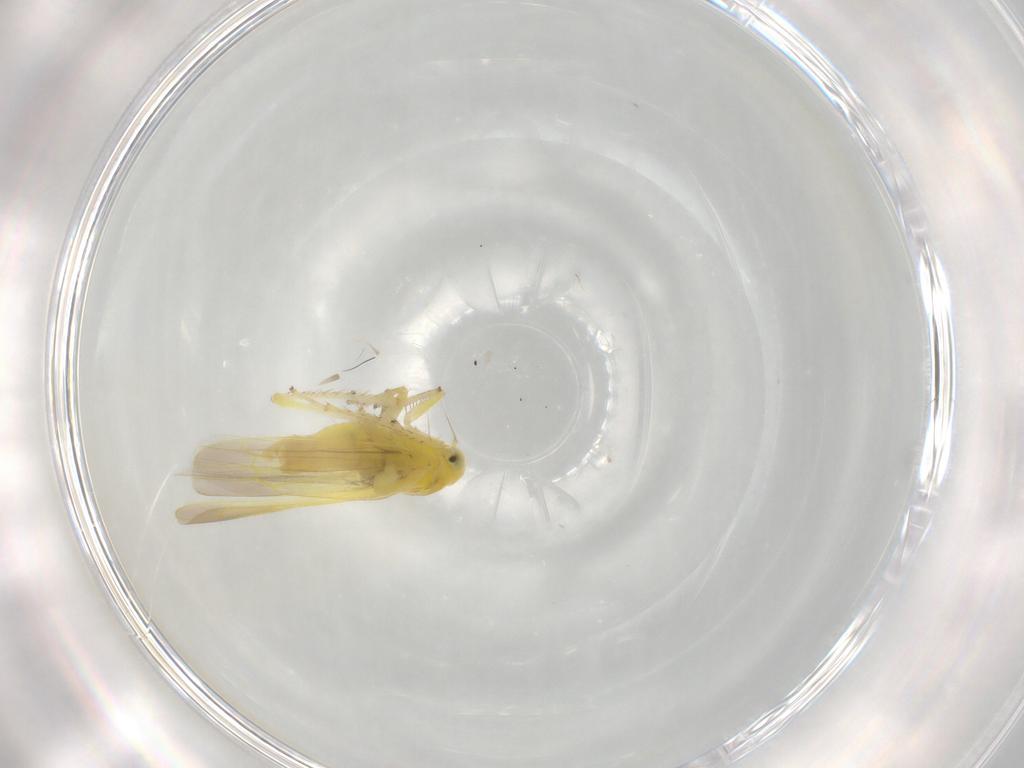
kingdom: Animalia
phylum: Arthropoda
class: Insecta
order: Hemiptera
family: Cicadellidae
